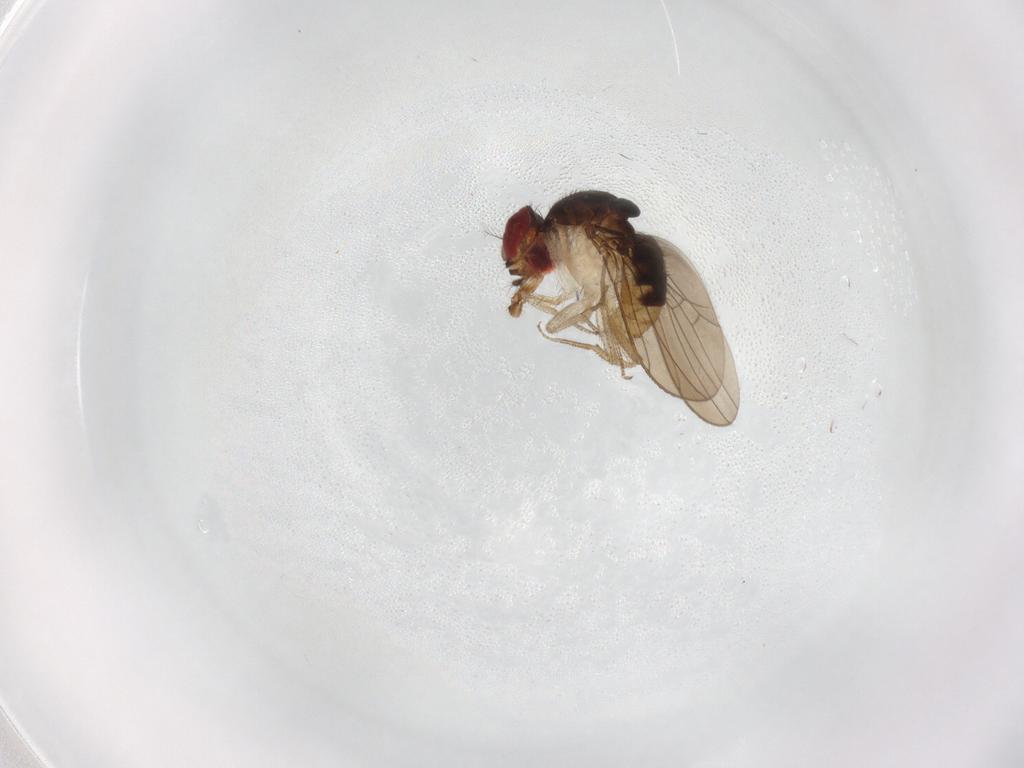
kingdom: Animalia
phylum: Arthropoda
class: Insecta
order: Diptera
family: Drosophilidae
